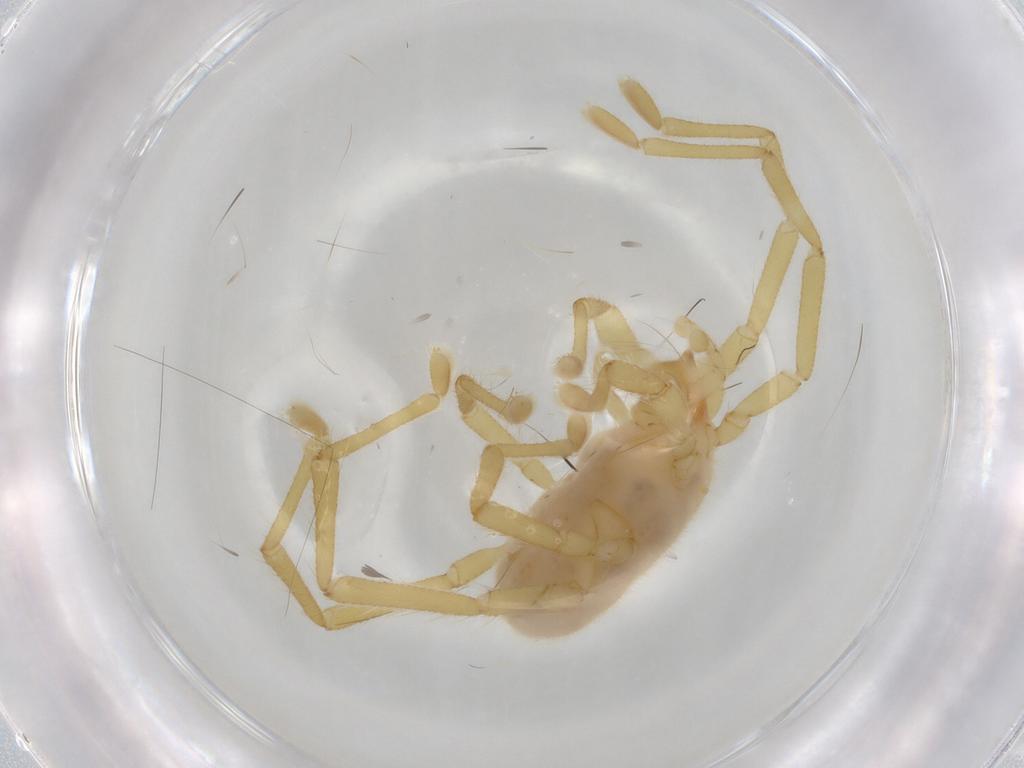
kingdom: Animalia
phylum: Arthropoda
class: Arachnida
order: Trombidiformes
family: Erythraeidae
